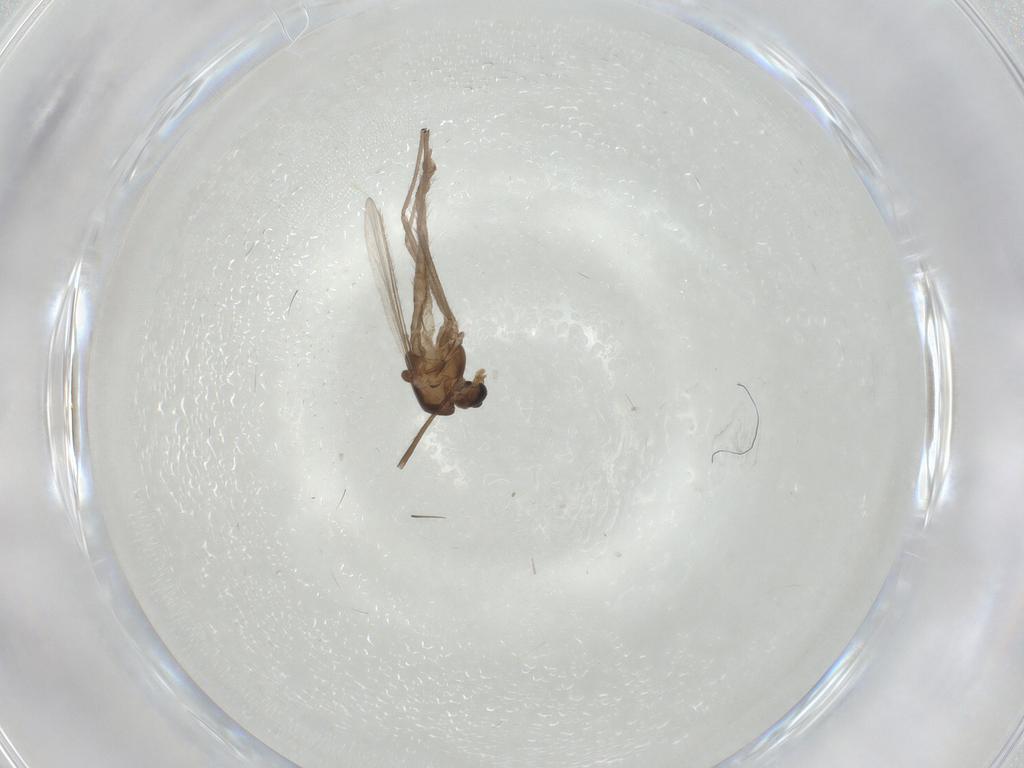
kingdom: Animalia
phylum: Arthropoda
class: Insecta
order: Diptera
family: Chironomidae
